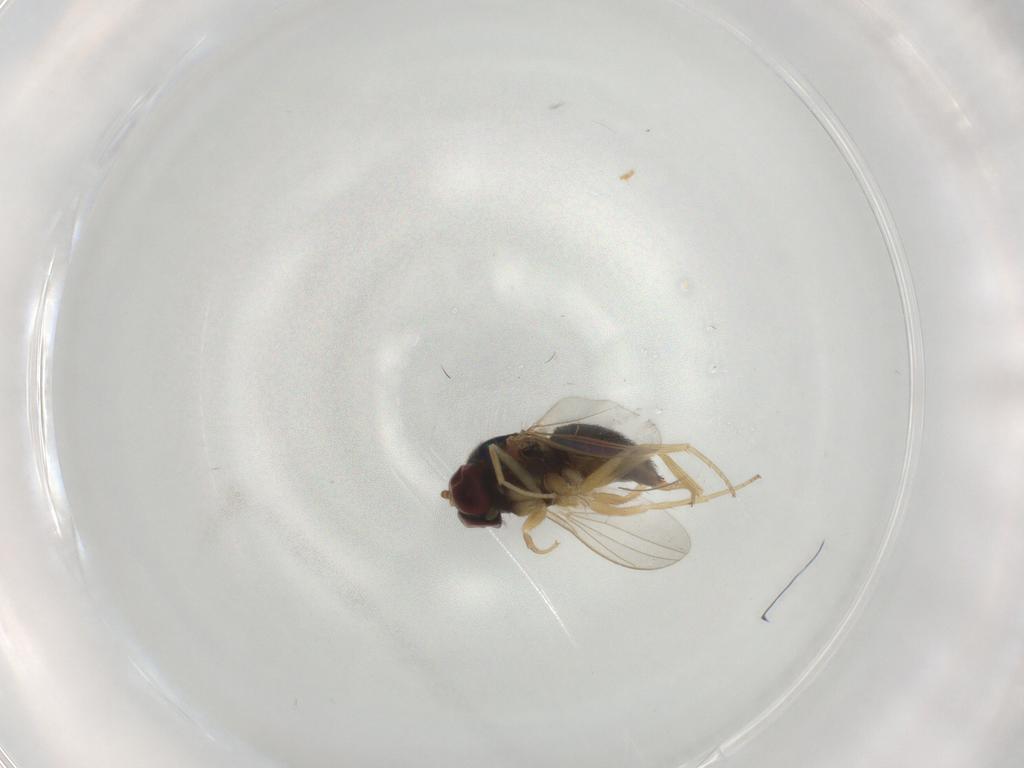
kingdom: Animalia
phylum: Arthropoda
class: Insecta
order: Diptera
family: Dolichopodidae
